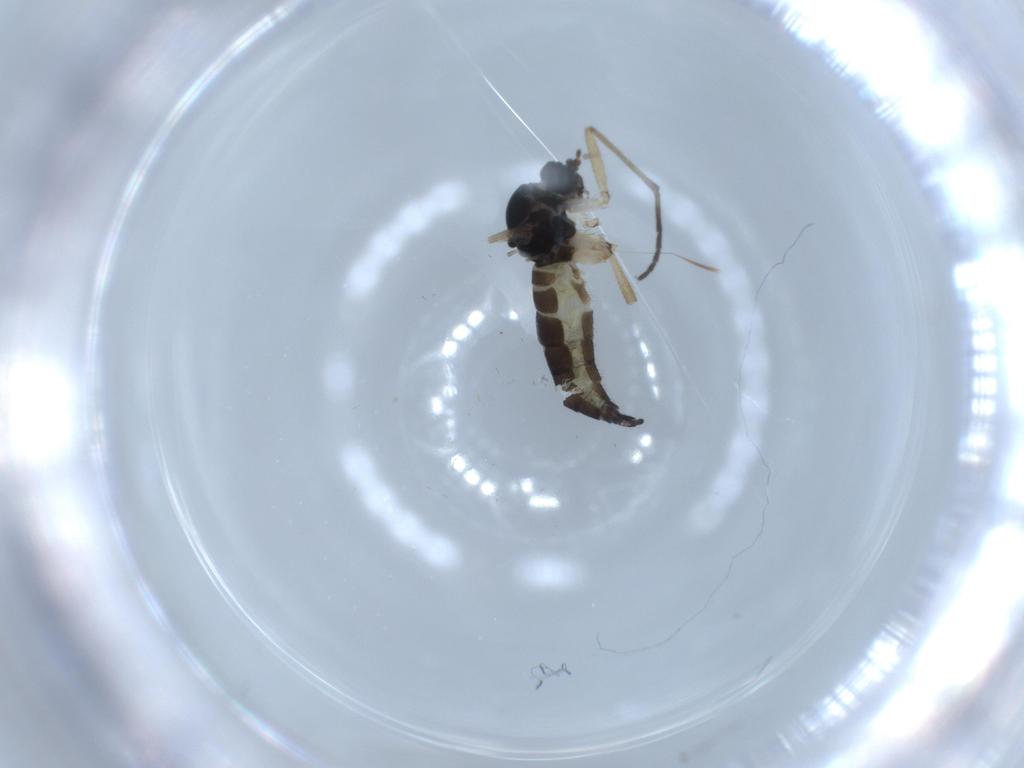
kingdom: Animalia
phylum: Arthropoda
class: Insecta
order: Diptera
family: Sciaridae
